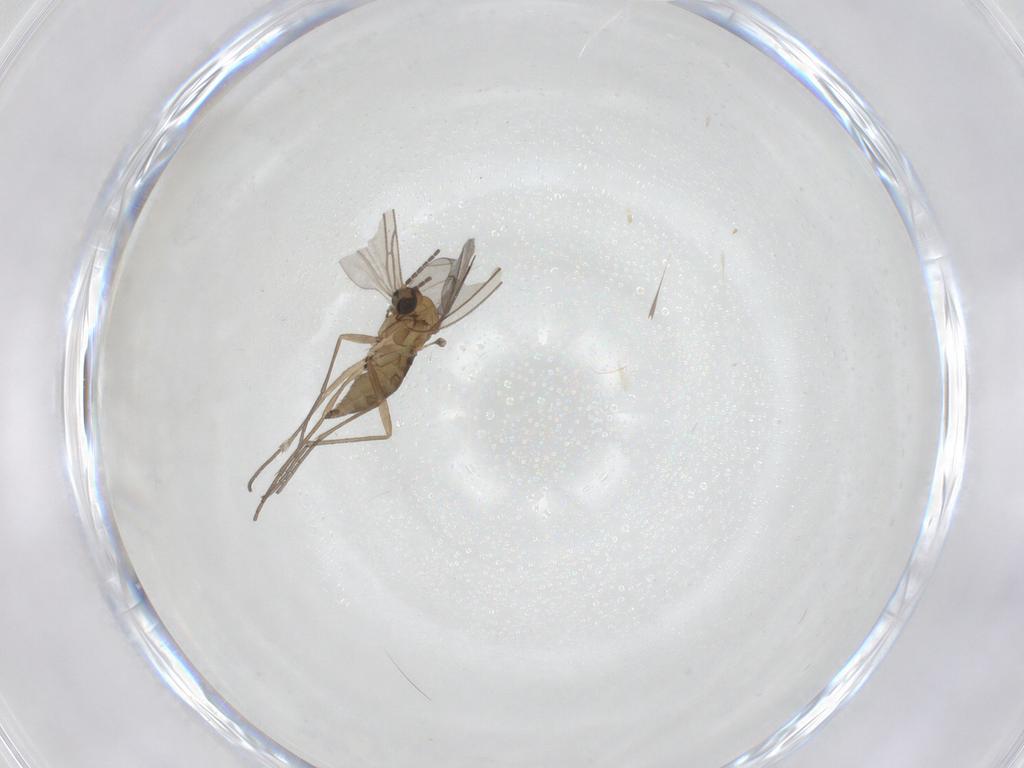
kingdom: Animalia
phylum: Arthropoda
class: Insecta
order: Diptera
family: Sciaridae
